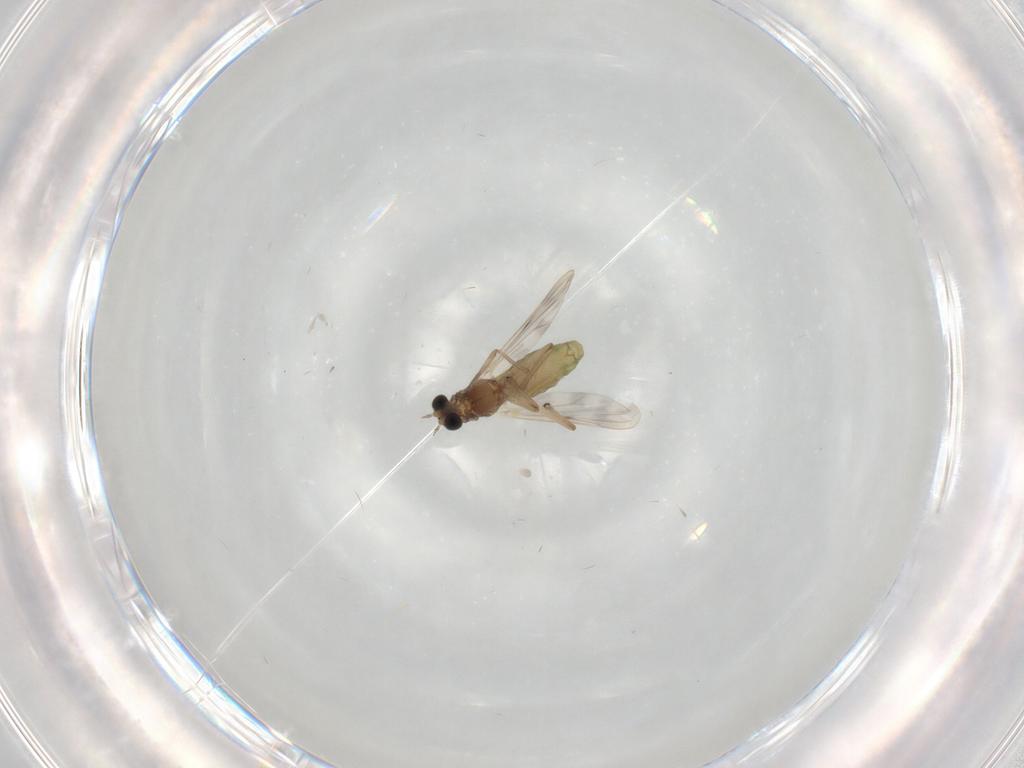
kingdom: Animalia
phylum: Arthropoda
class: Insecta
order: Diptera
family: Chironomidae
